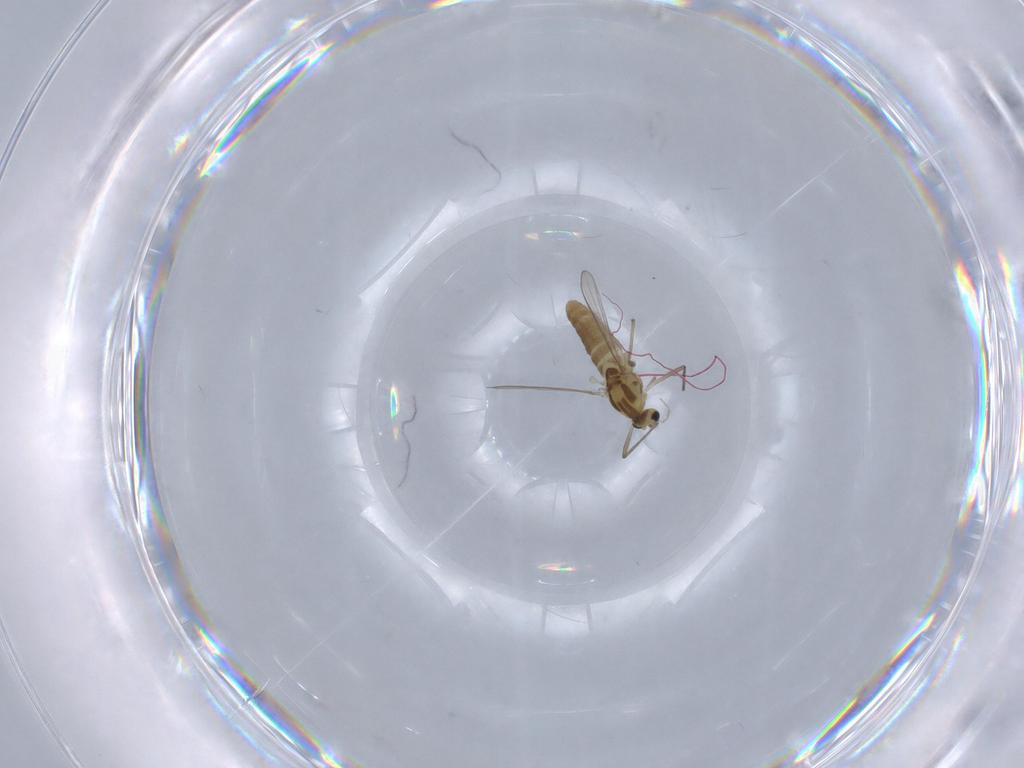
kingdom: Animalia
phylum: Arthropoda
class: Insecta
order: Diptera
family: Chironomidae
